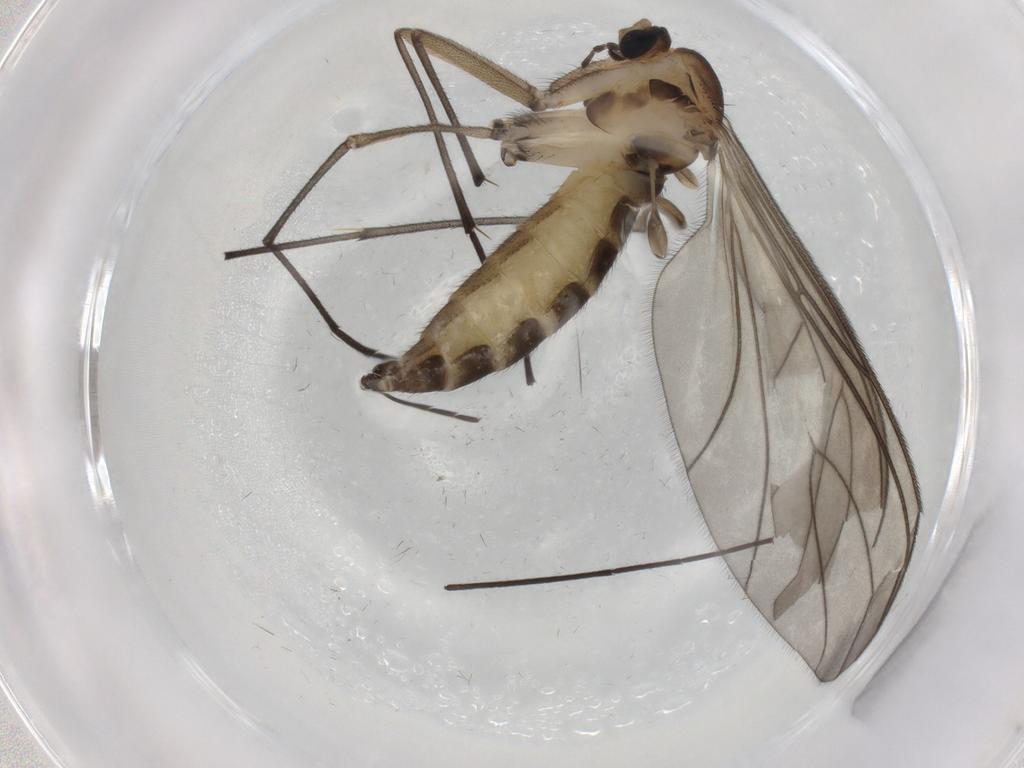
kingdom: Animalia
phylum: Arthropoda
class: Insecta
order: Diptera
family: Sciaridae
